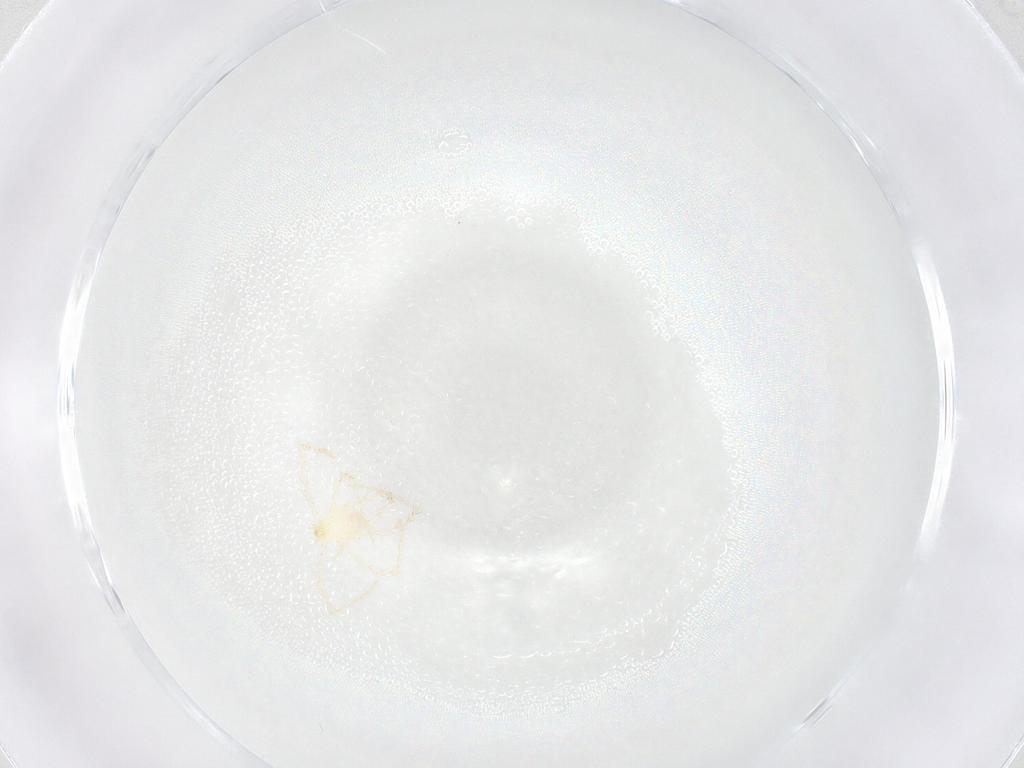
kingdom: Animalia
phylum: Arthropoda
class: Arachnida
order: Trombidiformes
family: Erythraeidae
